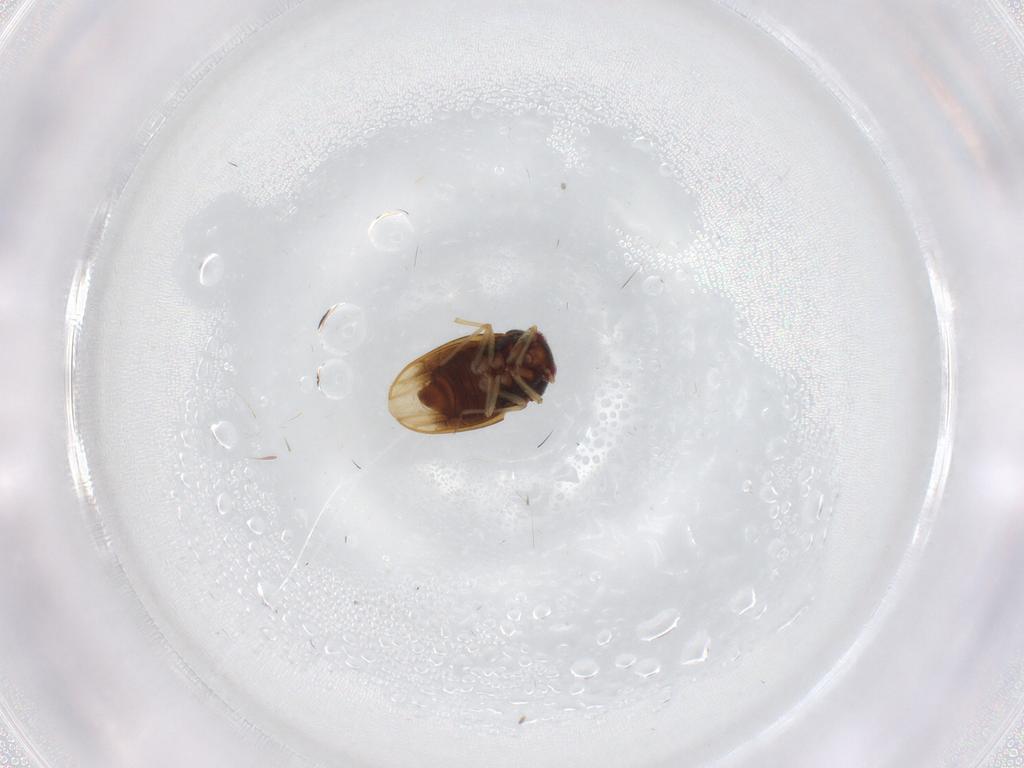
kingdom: Animalia
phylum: Arthropoda
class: Insecta
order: Hemiptera
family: Schizopteridae
